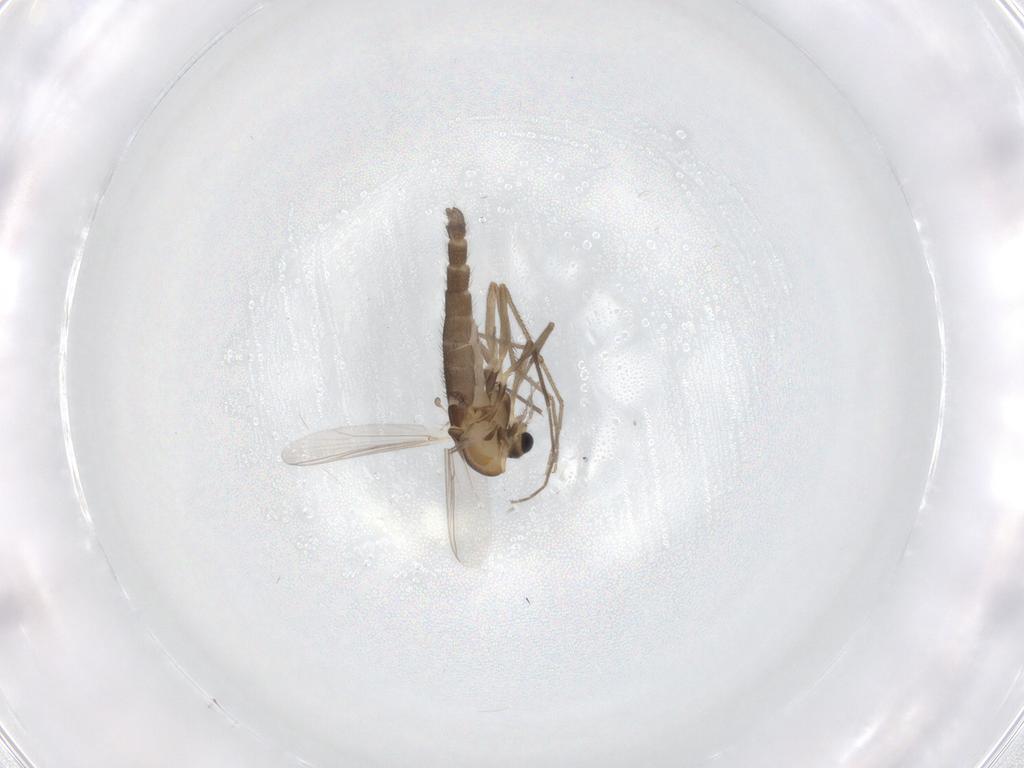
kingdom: Animalia
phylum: Arthropoda
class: Insecta
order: Diptera
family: Chironomidae
